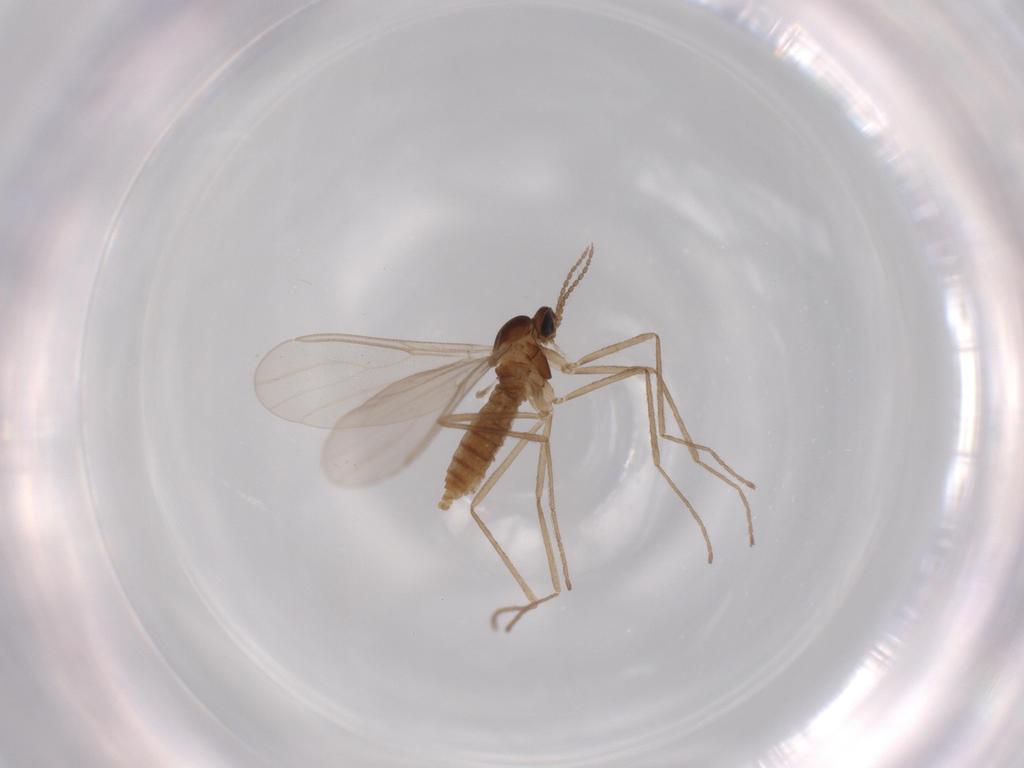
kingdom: Animalia
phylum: Arthropoda
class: Insecta
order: Diptera
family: Cecidomyiidae
